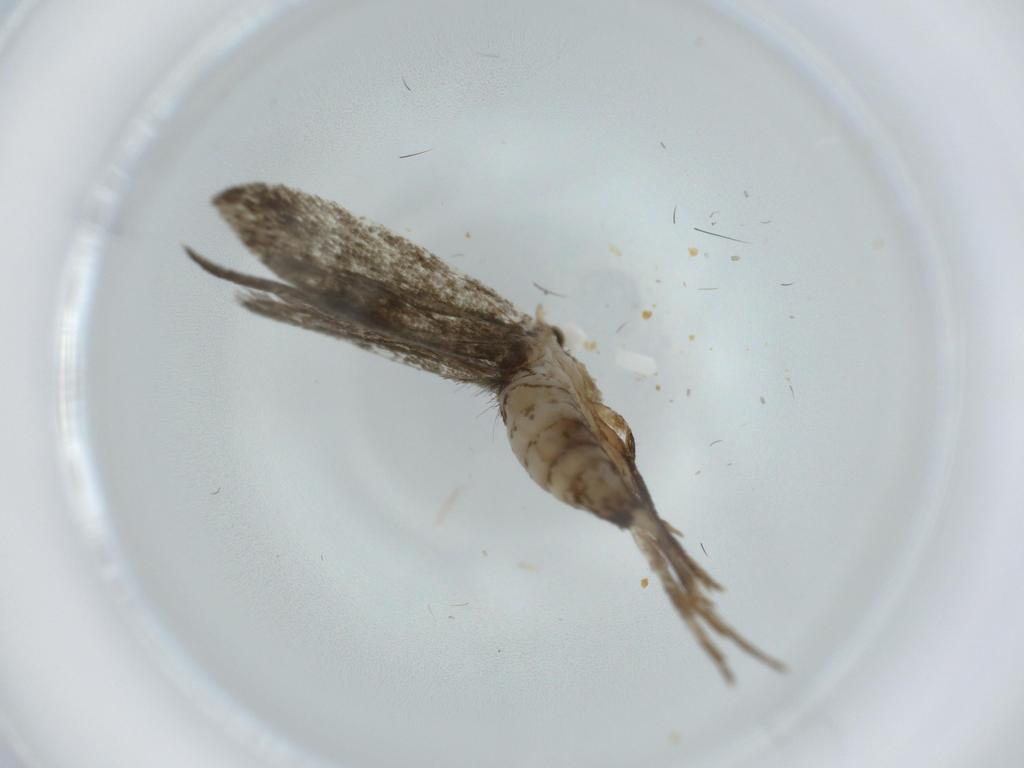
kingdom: Animalia
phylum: Arthropoda
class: Insecta
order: Lepidoptera
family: Tineidae
